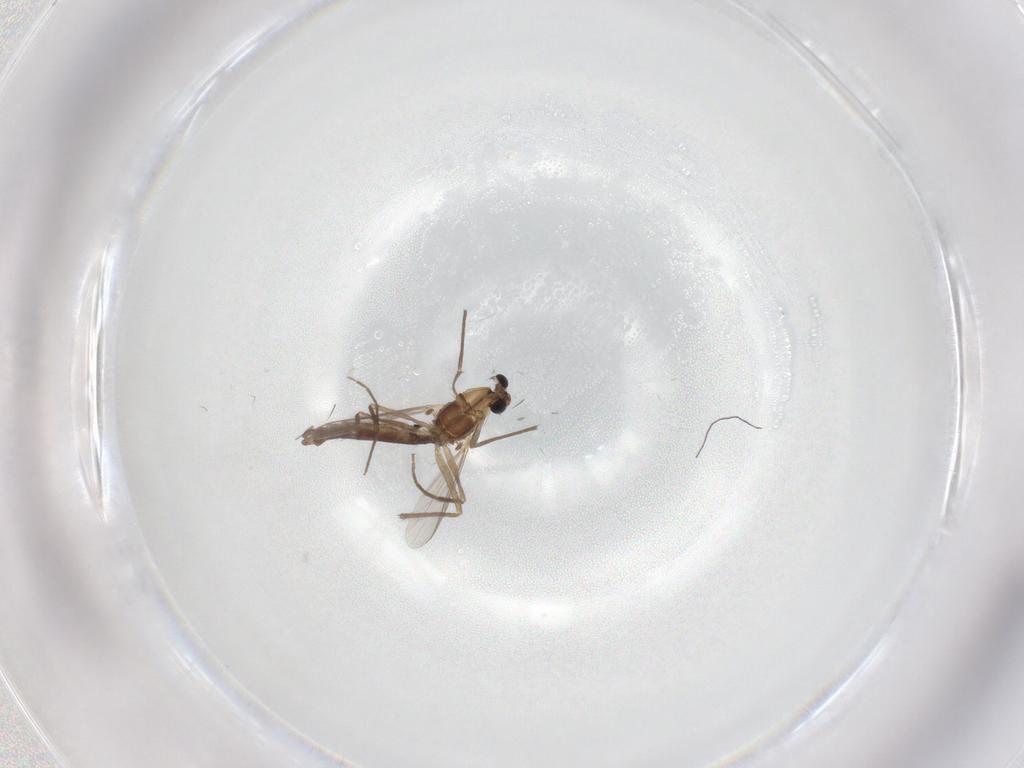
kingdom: Animalia
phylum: Arthropoda
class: Insecta
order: Diptera
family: Chironomidae
